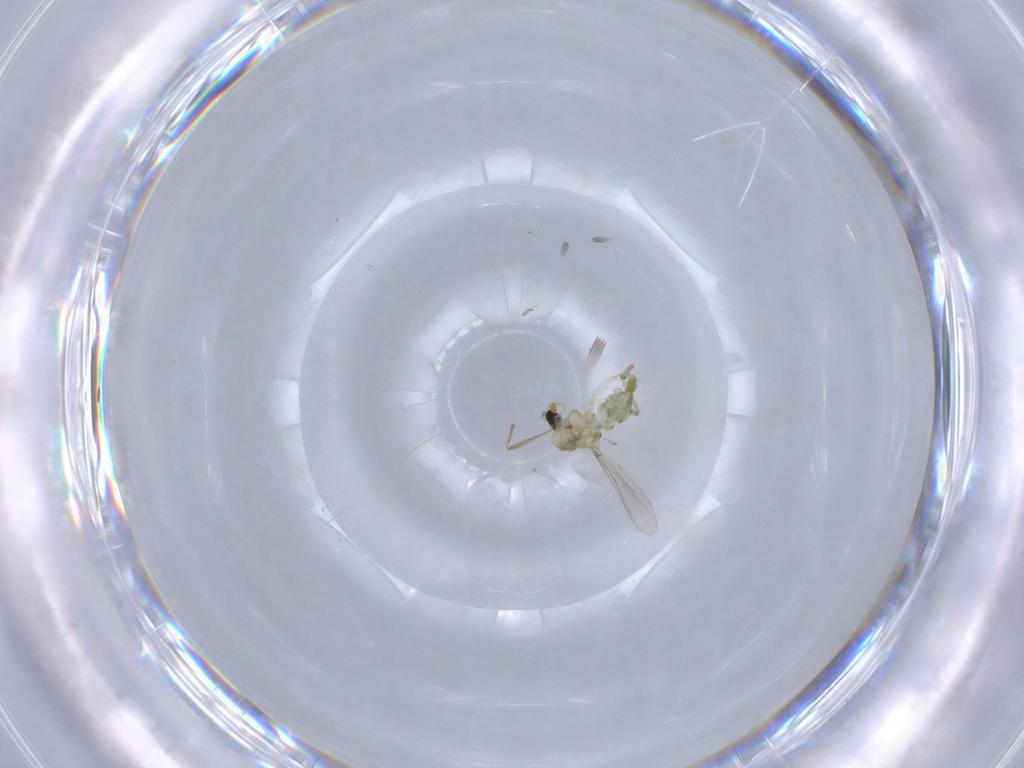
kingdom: Animalia
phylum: Arthropoda
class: Insecta
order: Diptera
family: Chironomidae
